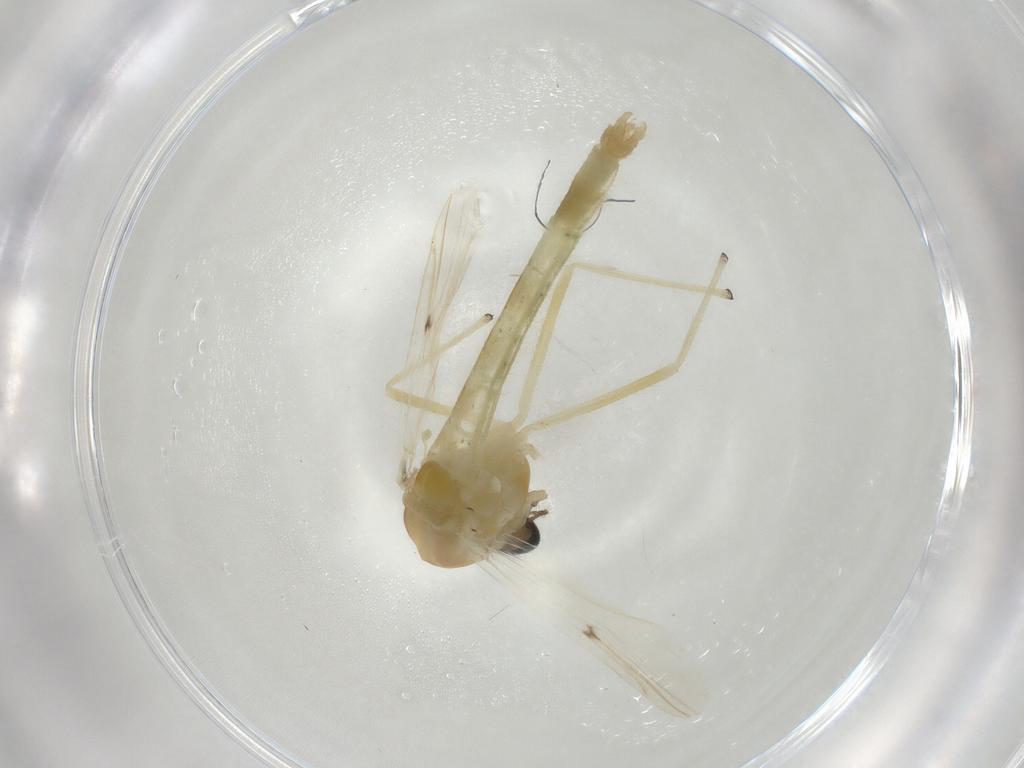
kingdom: Animalia
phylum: Arthropoda
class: Insecta
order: Diptera
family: Chironomidae
